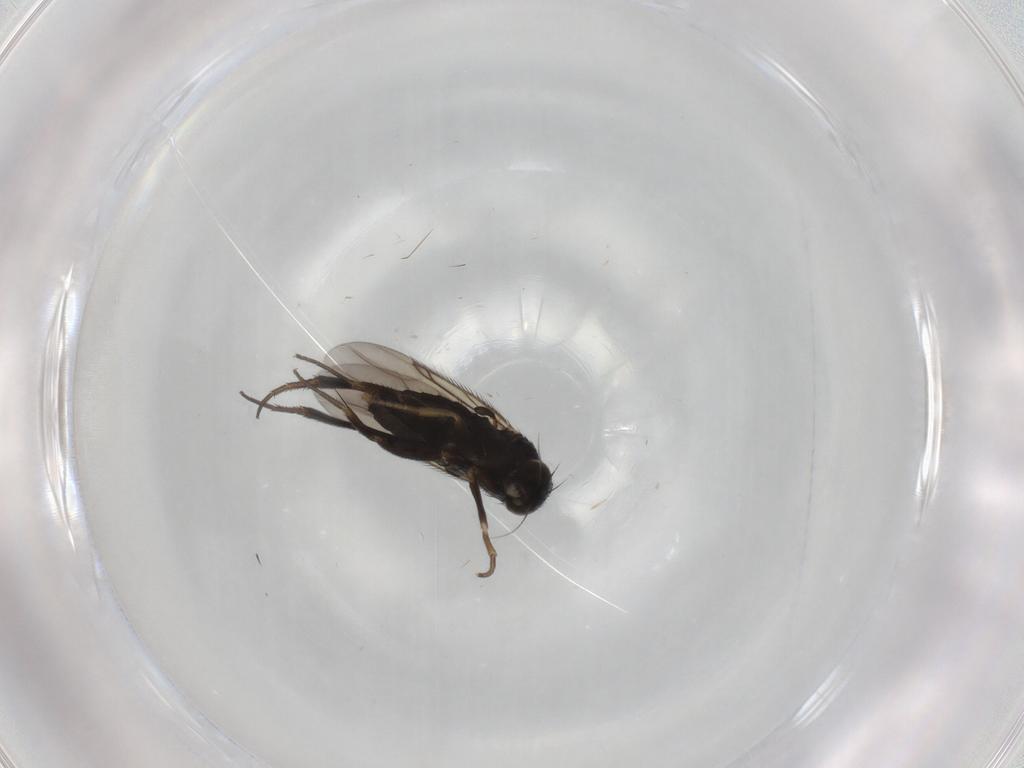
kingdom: Animalia
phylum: Arthropoda
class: Insecta
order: Diptera
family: Phoridae
